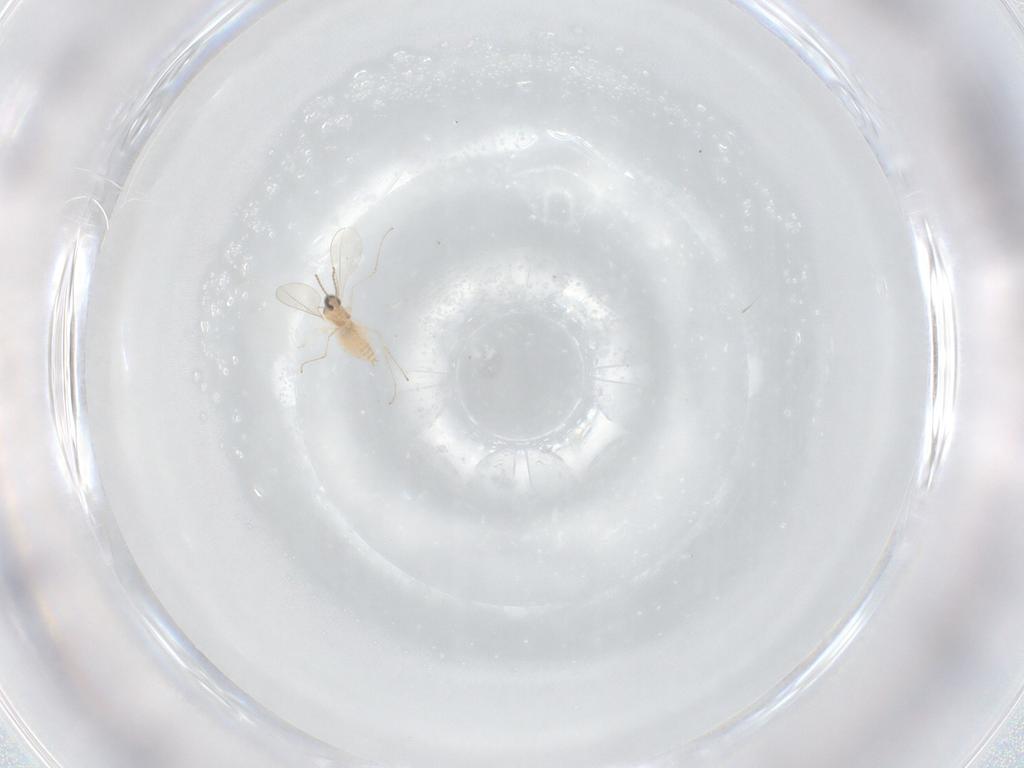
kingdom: Animalia
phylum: Arthropoda
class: Insecta
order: Diptera
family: Cecidomyiidae
